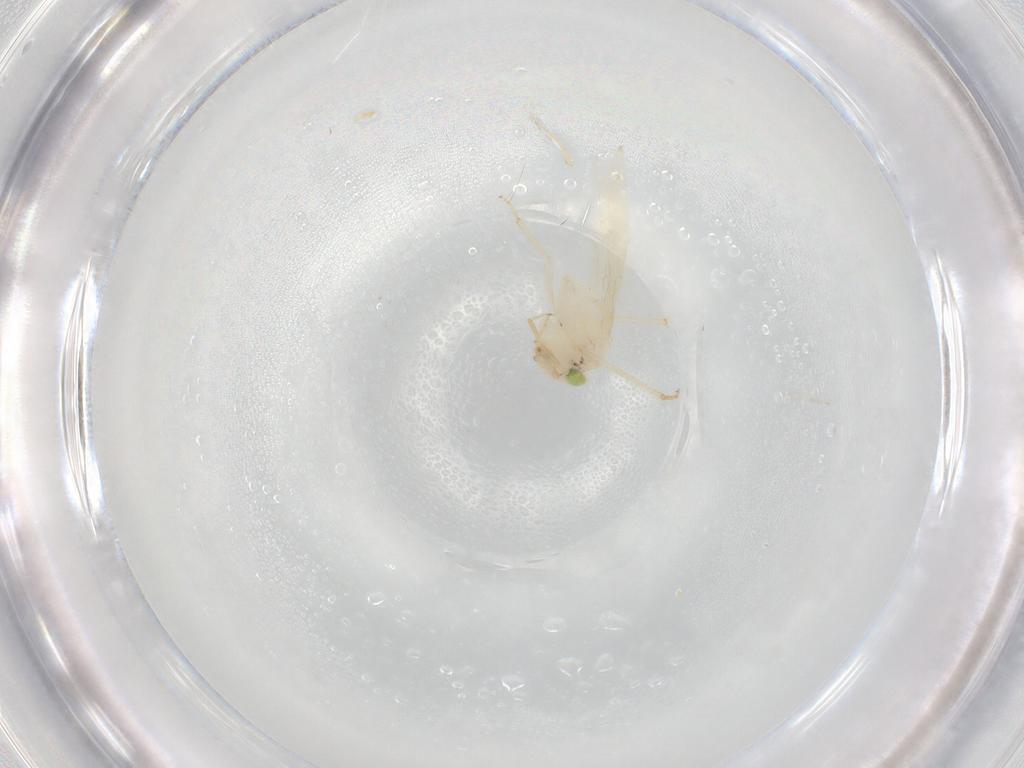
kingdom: Animalia
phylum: Arthropoda
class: Insecta
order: Psocodea
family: Lepidopsocidae
